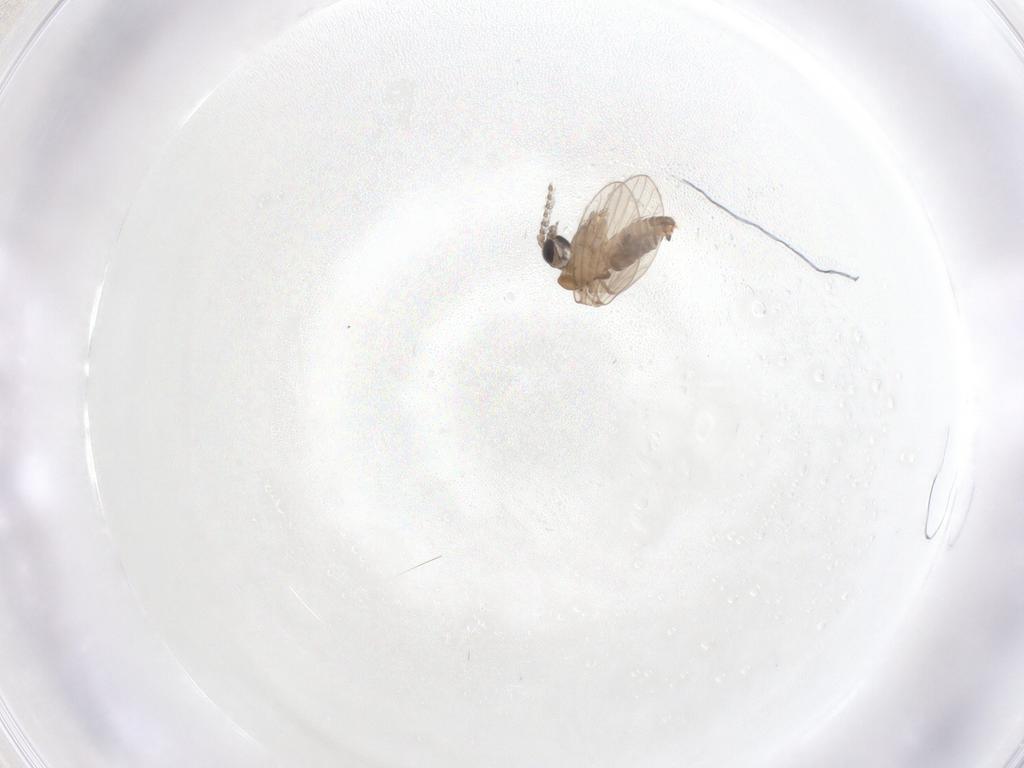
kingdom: Animalia
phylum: Arthropoda
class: Insecta
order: Diptera
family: Psychodidae
